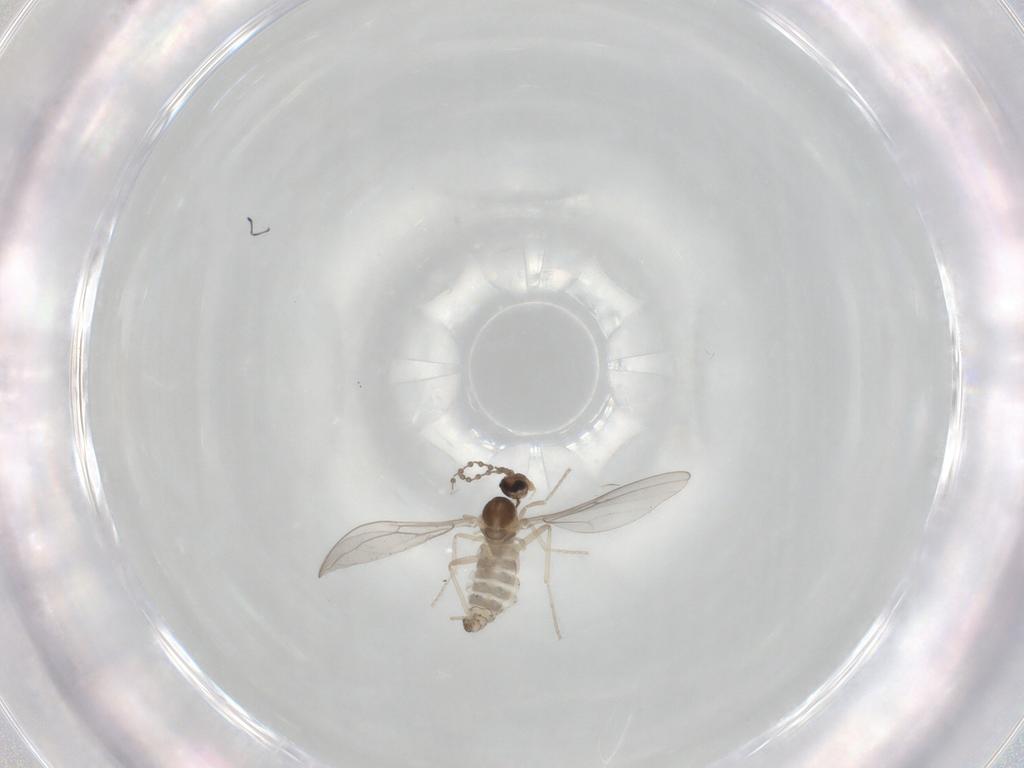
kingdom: Animalia
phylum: Arthropoda
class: Insecta
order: Diptera
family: Cecidomyiidae
